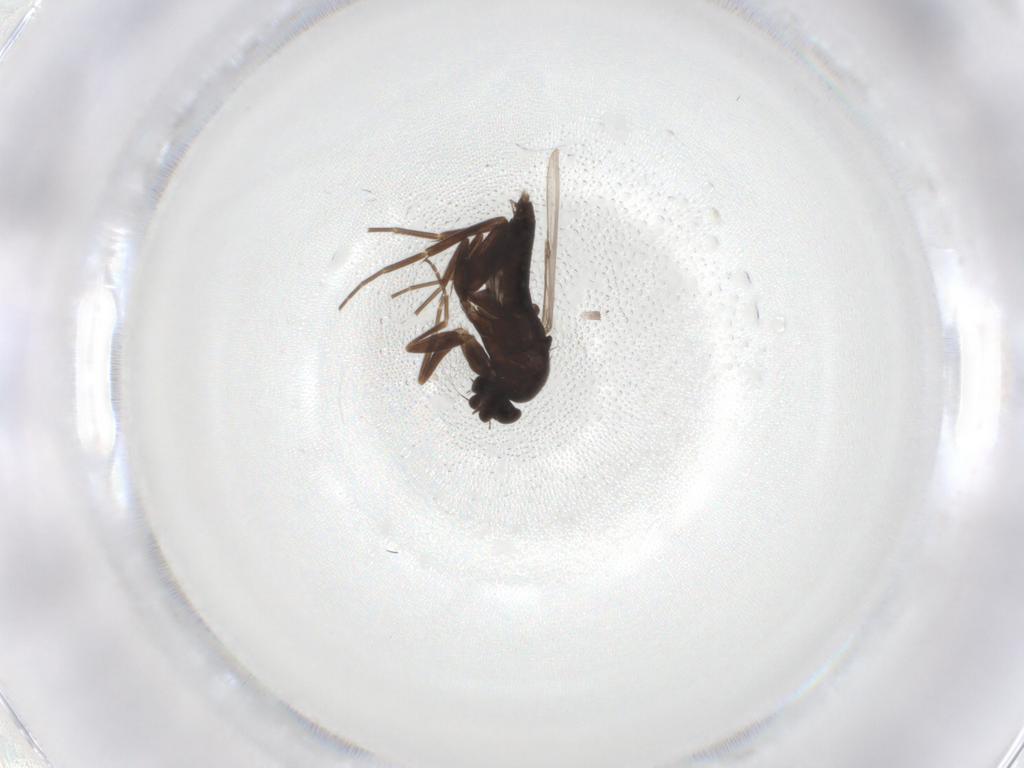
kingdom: Animalia
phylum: Arthropoda
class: Insecta
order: Diptera
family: Phoridae
